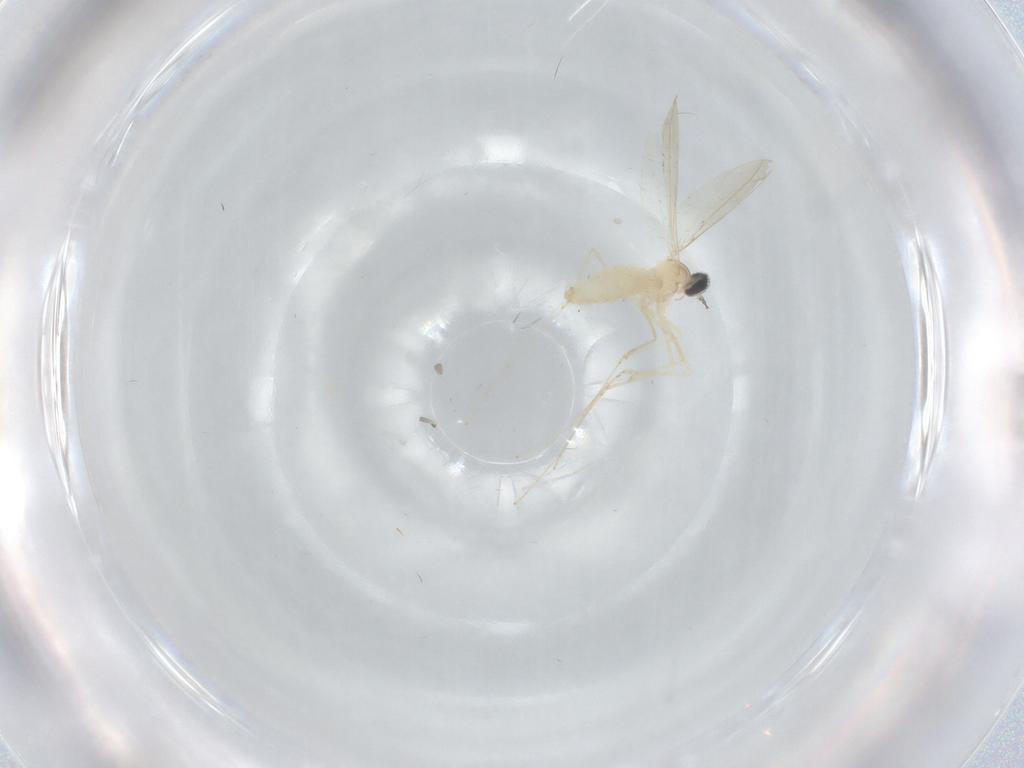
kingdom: Animalia
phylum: Arthropoda
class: Insecta
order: Diptera
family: Cecidomyiidae
